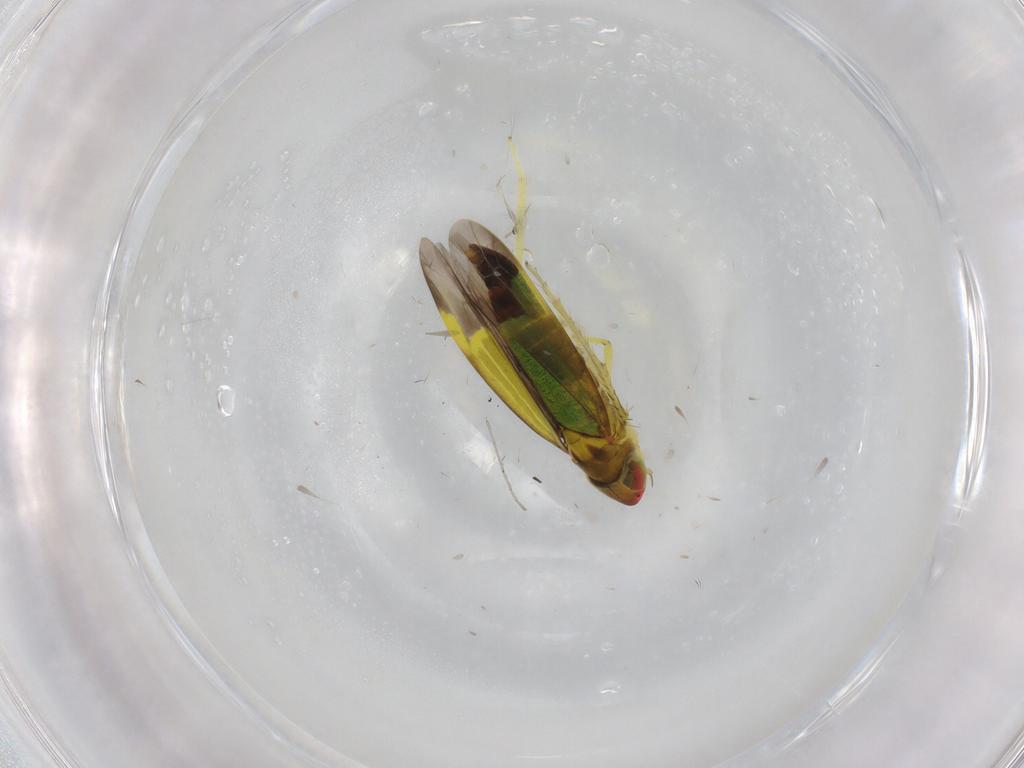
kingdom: Animalia
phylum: Arthropoda
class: Insecta
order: Hemiptera
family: Cicadellidae
